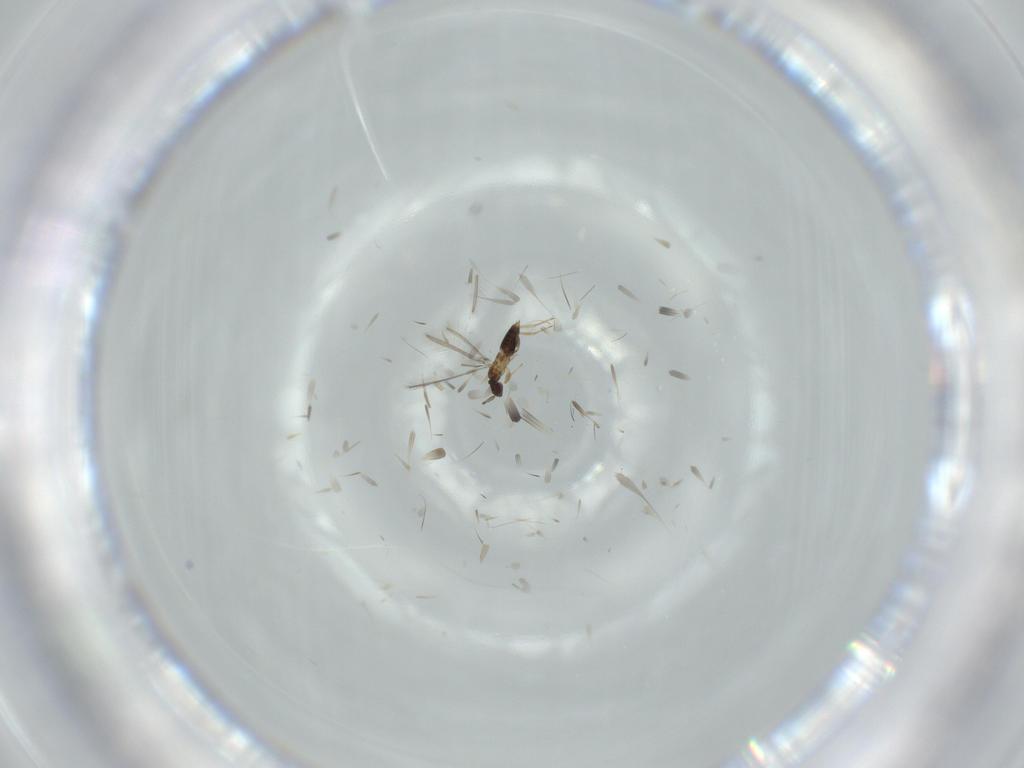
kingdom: Animalia
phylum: Arthropoda
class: Insecta
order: Hymenoptera
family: Mymaridae
